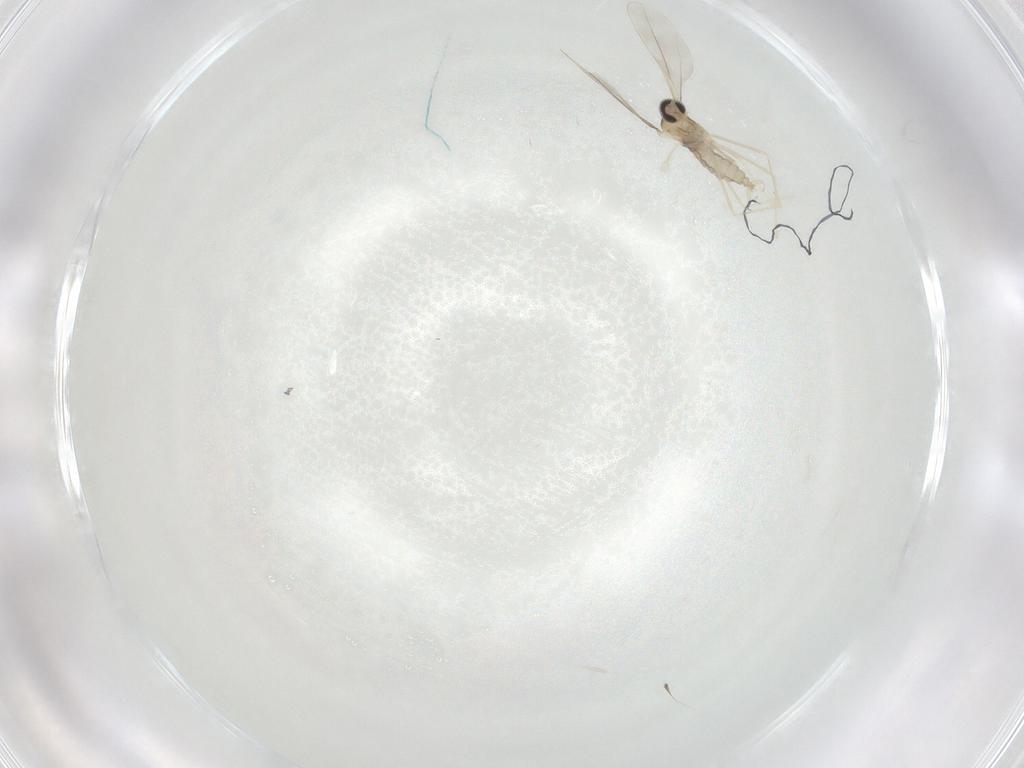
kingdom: Animalia
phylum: Arthropoda
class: Insecta
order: Diptera
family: Cecidomyiidae
